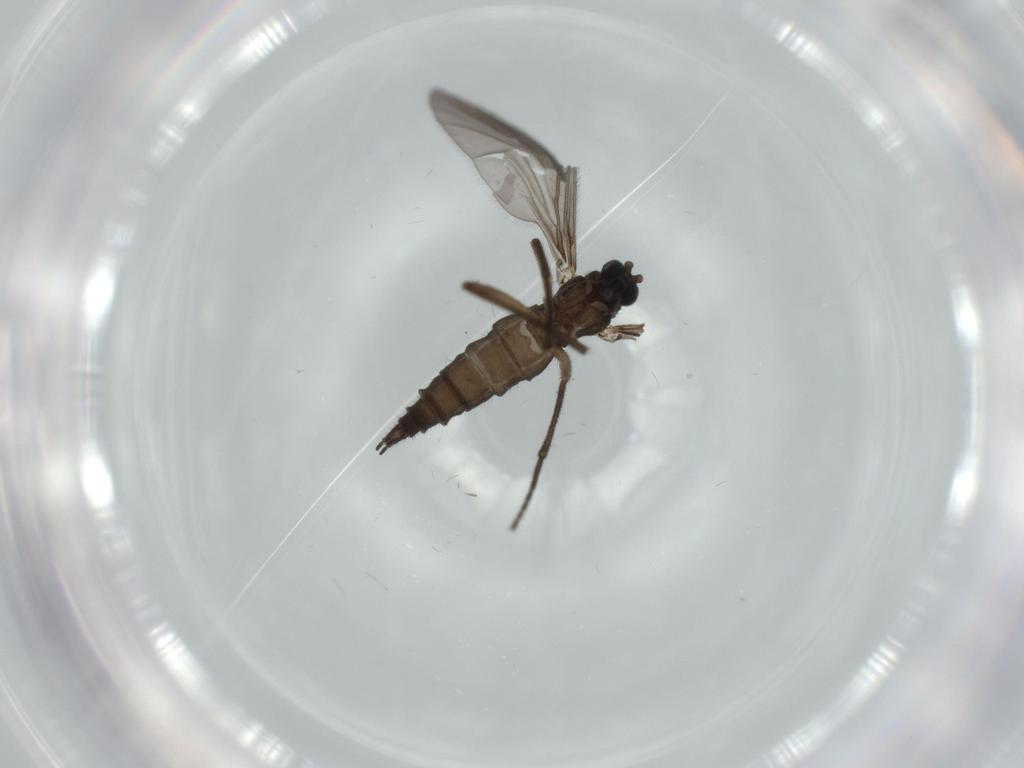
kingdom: Animalia
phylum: Arthropoda
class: Insecta
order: Diptera
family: Sciaridae
